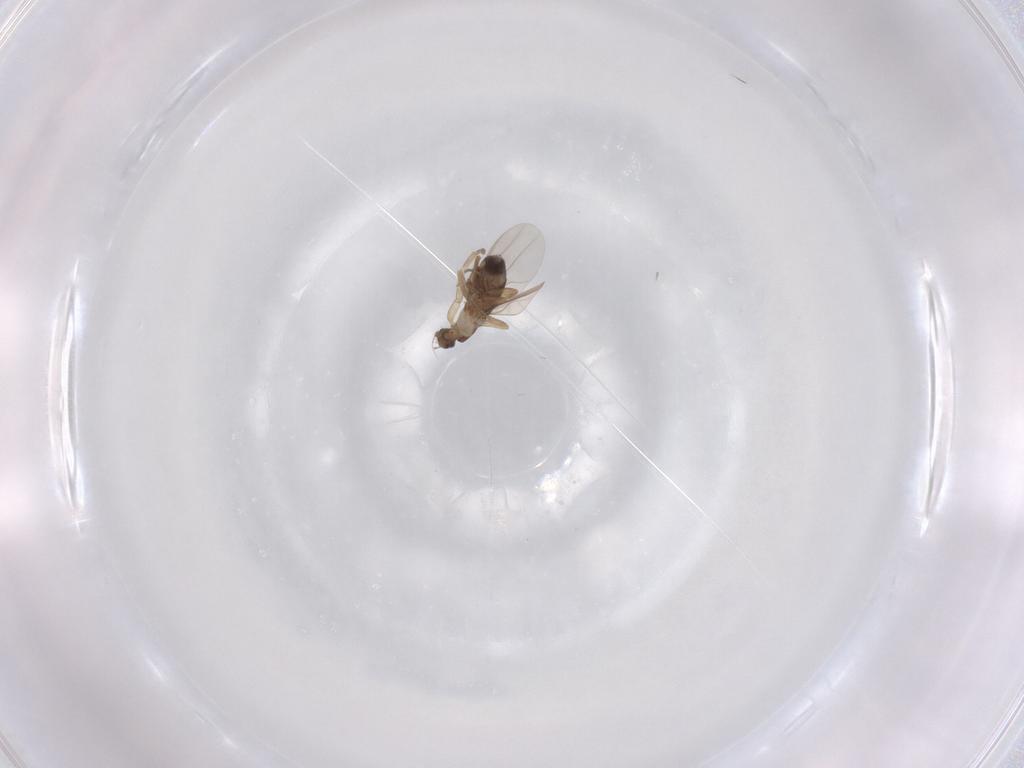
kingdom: Animalia
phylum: Arthropoda
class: Insecta
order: Diptera
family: Phoridae
